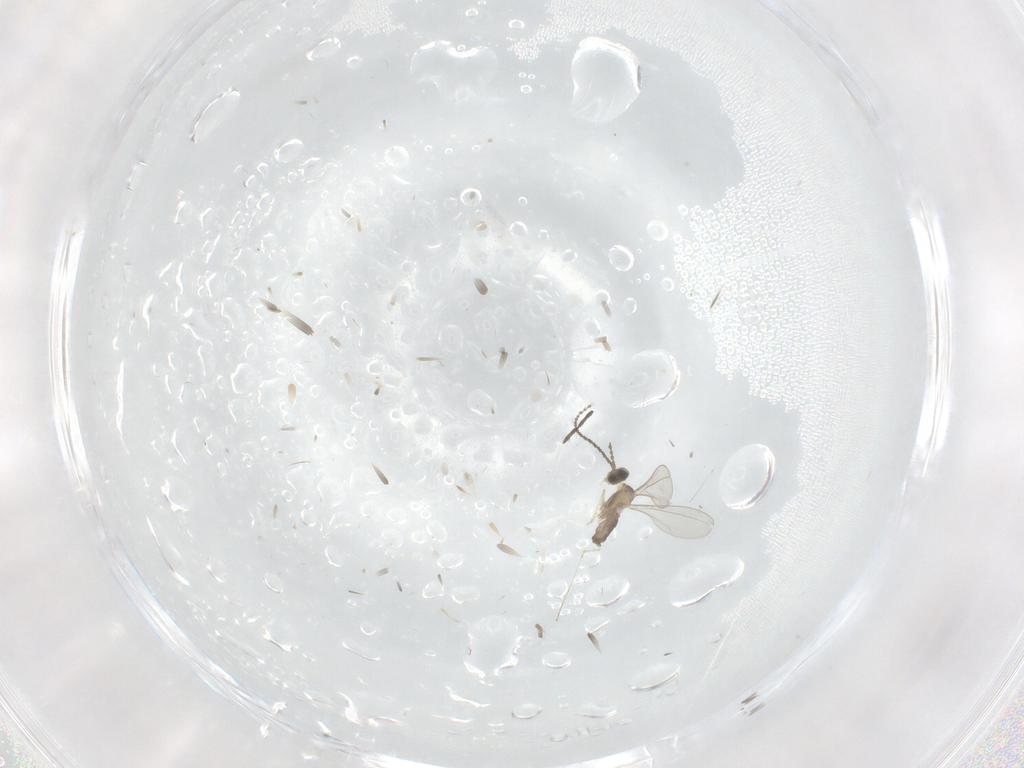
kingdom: Animalia
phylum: Arthropoda
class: Insecta
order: Diptera
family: Cecidomyiidae
